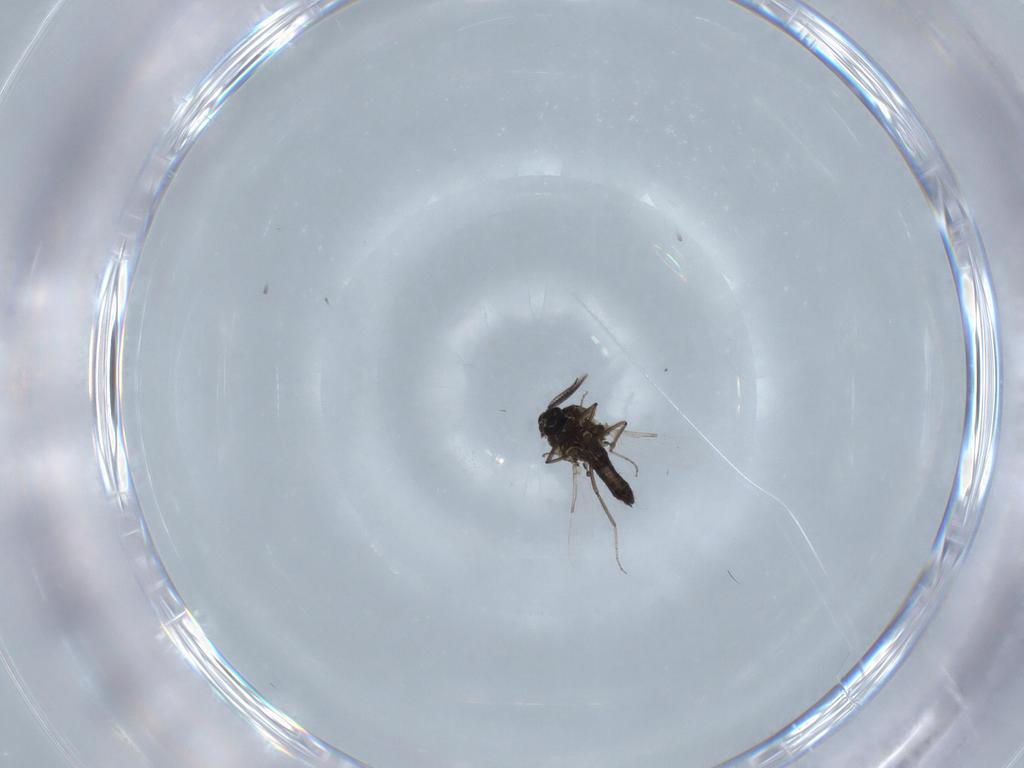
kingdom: Animalia
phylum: Arthropoda
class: Insecta
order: Diptera
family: Ceratopogonidae
